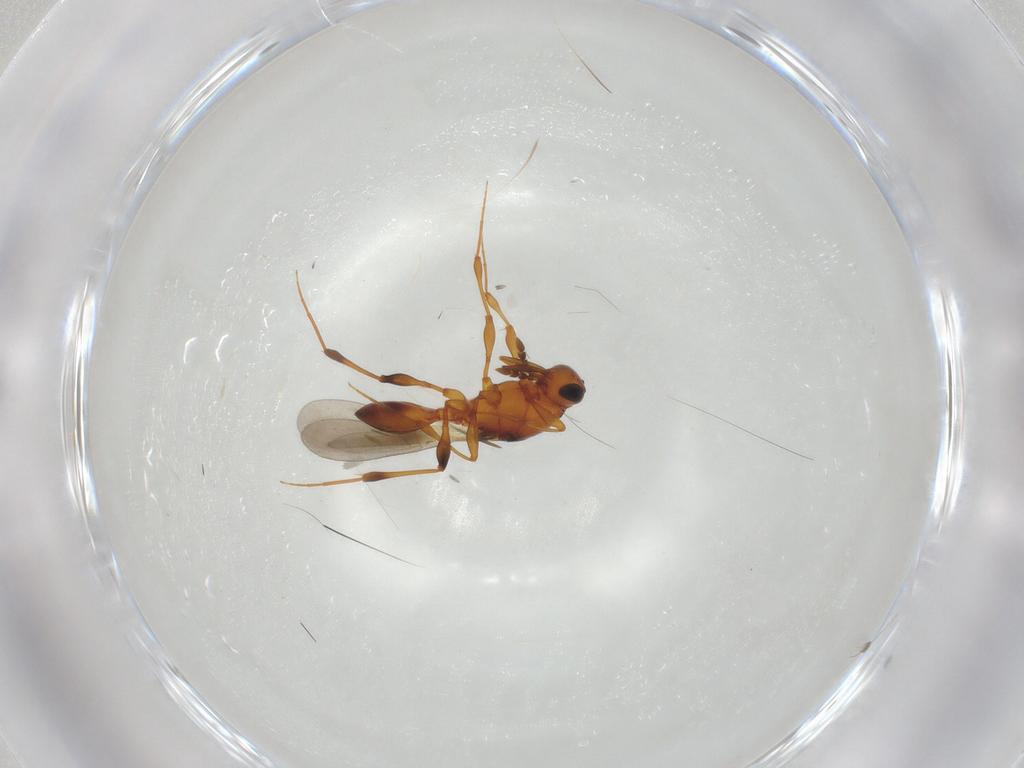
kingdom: Animalia
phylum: Arthropoda
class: Insecta
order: Hymenoptera
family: Platygastridae
